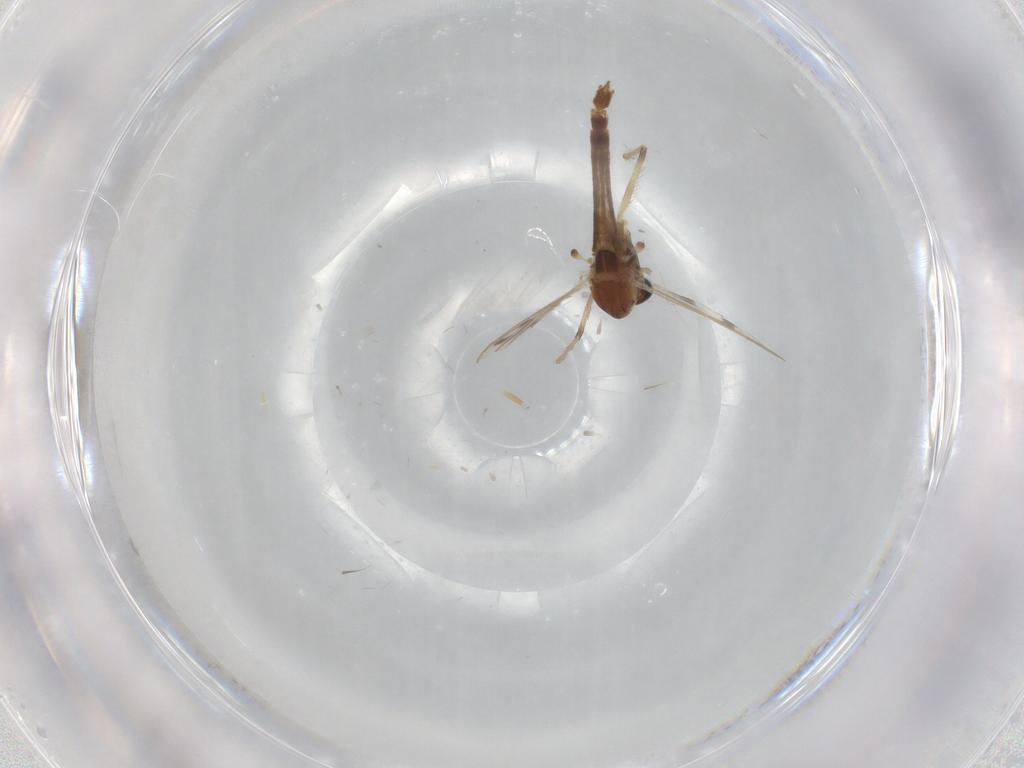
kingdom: Animalia
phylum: Arthropoda
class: Insecta
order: Diptera
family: Chironomidae
